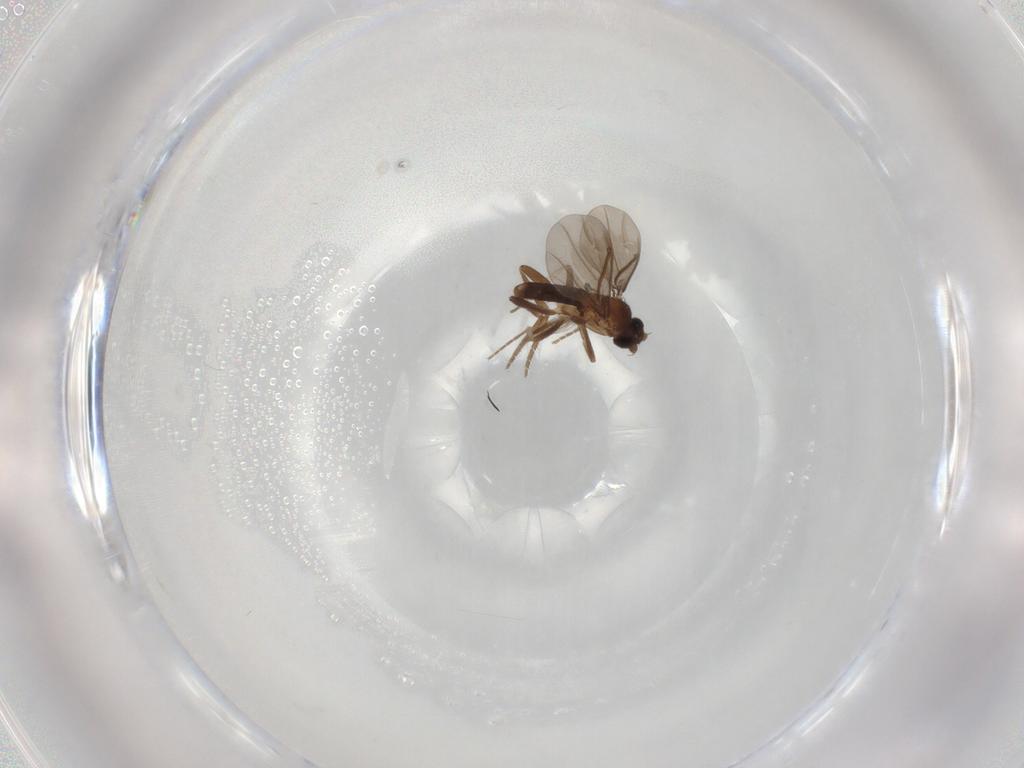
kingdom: Animalia
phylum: Arthropoda
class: Insecta
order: Diptera
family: Ceratopogonidae
